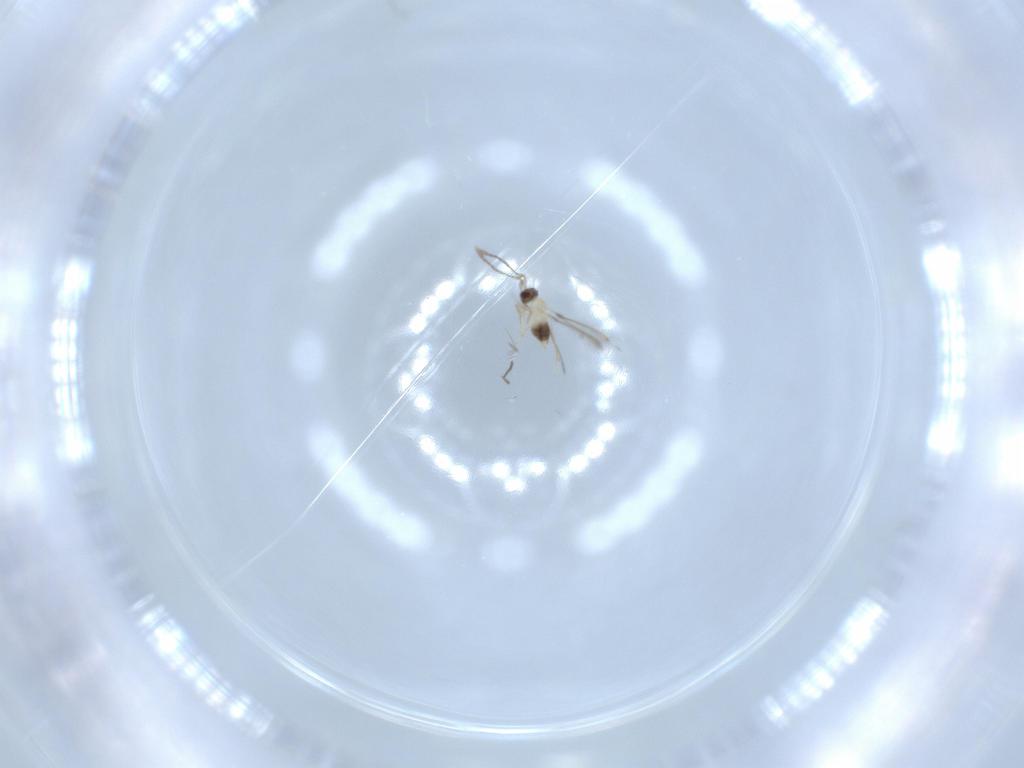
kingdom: Animalia
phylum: Arthropoda
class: Insecta
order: Hymenoptera
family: Mymaridae
